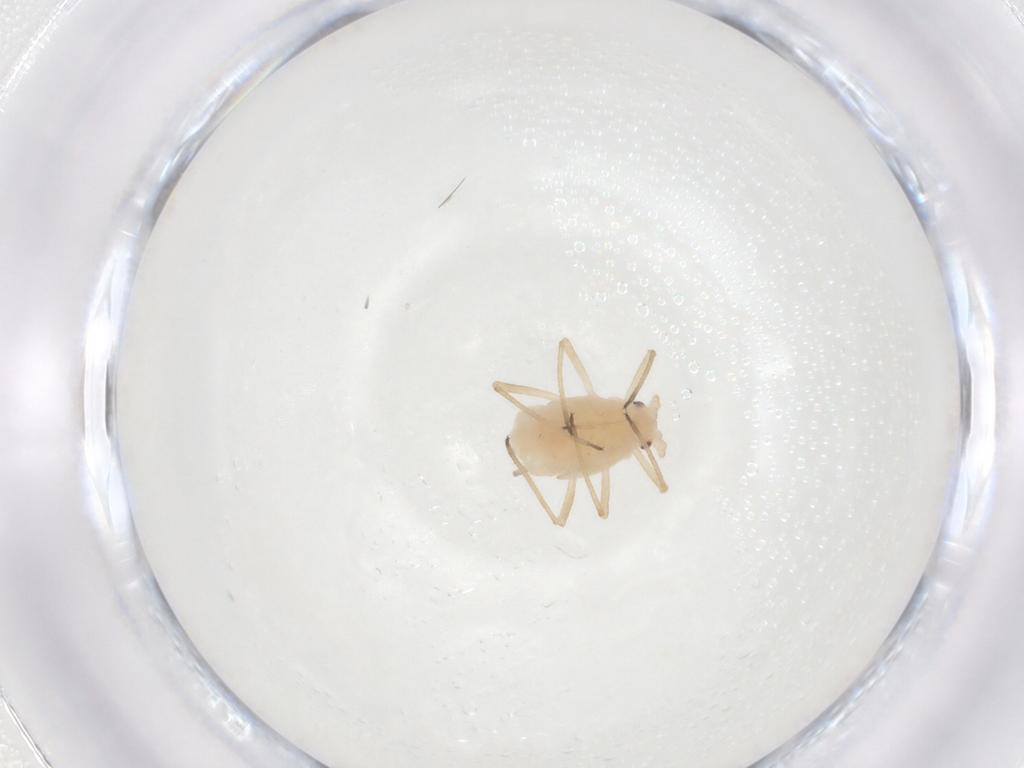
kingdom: Animalia
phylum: Arthropoda
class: Insecta
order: Hemiptera
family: Aphididae
